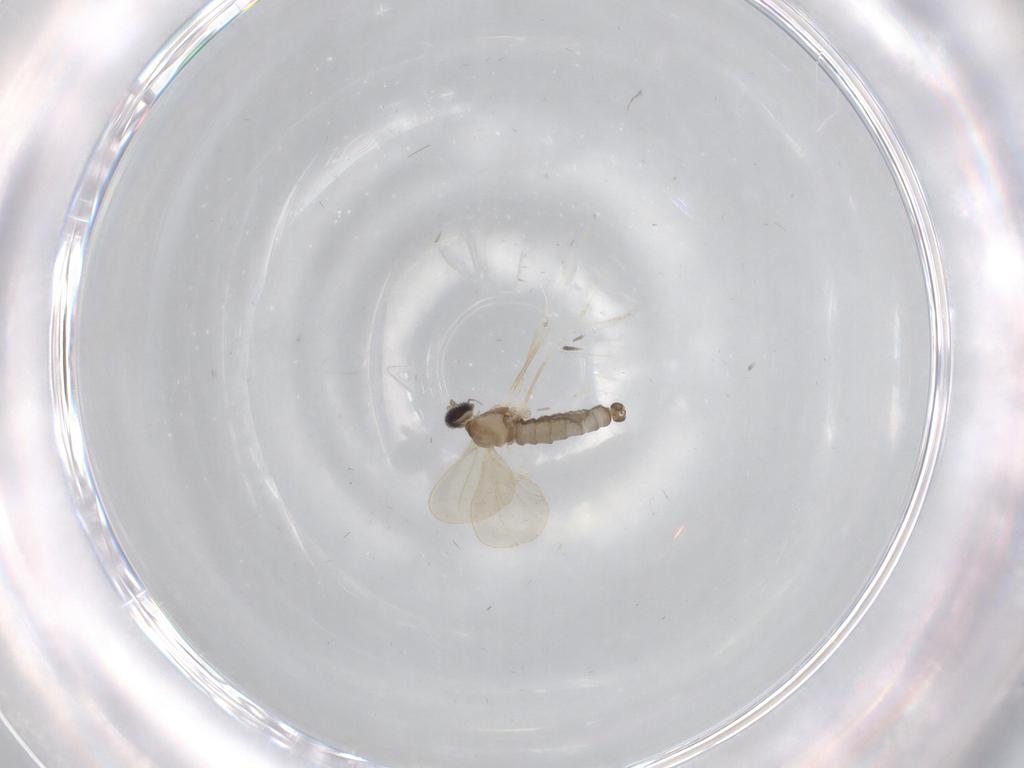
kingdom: Animalia
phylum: Arthropoda
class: Insecta
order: Diptera
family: Cecidomyiidae
